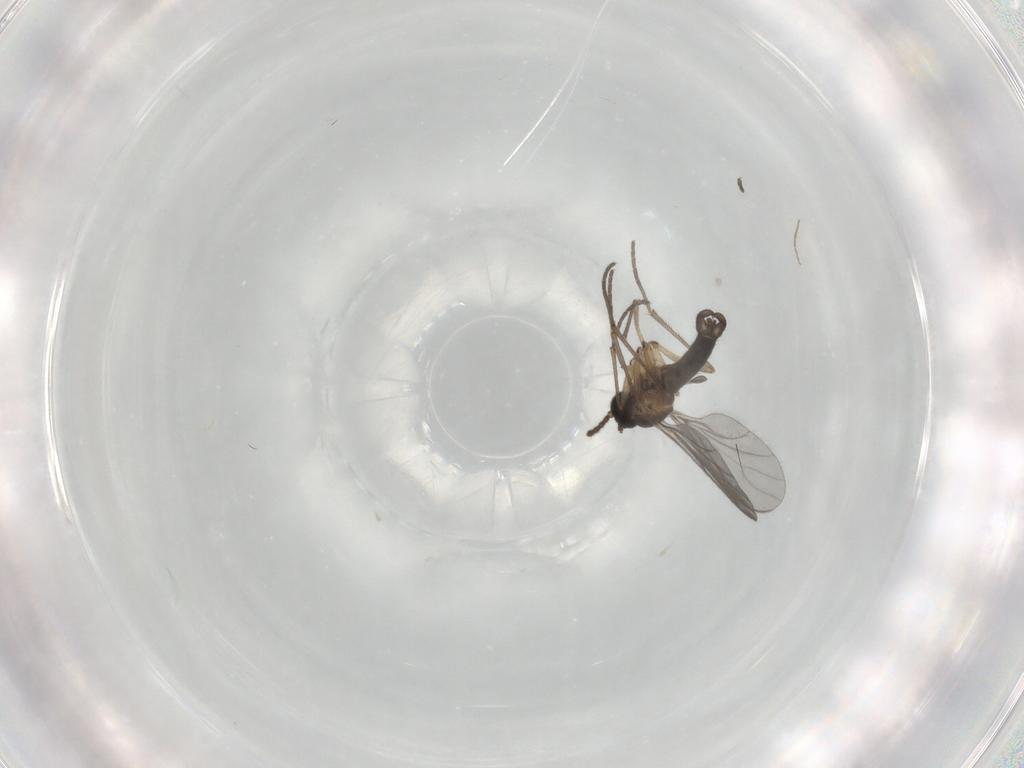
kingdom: Animalia
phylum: Arthropoda
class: Insecta
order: Diptera
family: Sciaridae
